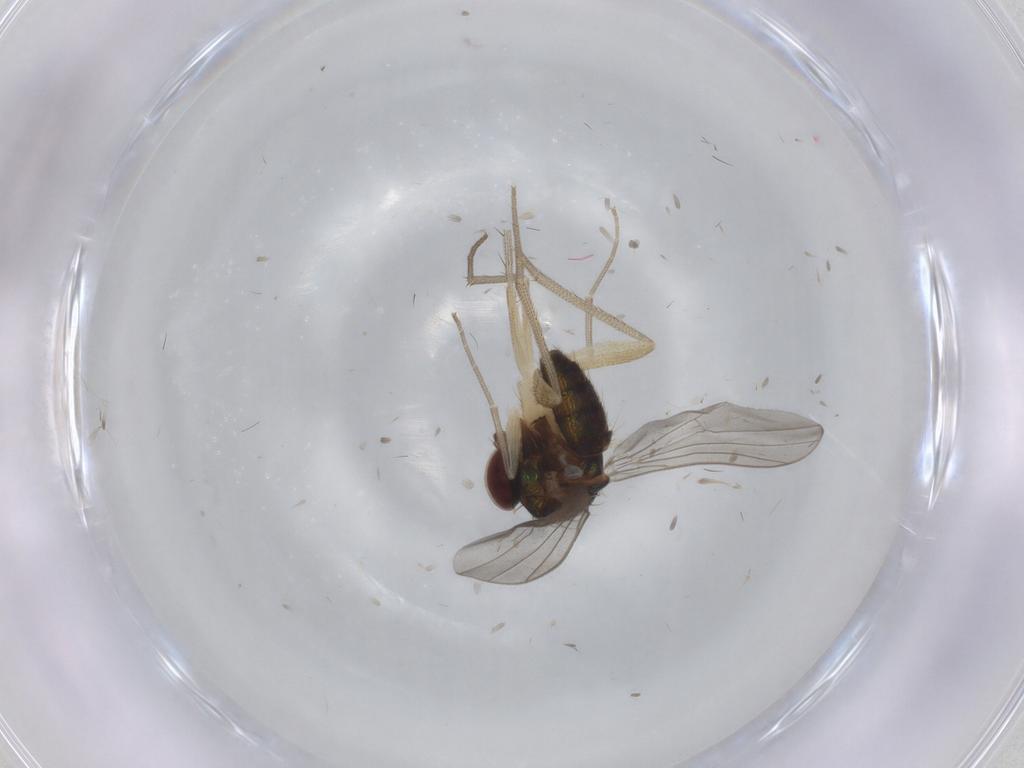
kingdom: Animalia
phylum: Arthropoda
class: Insecta
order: Diptera
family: Dolichopodidae
